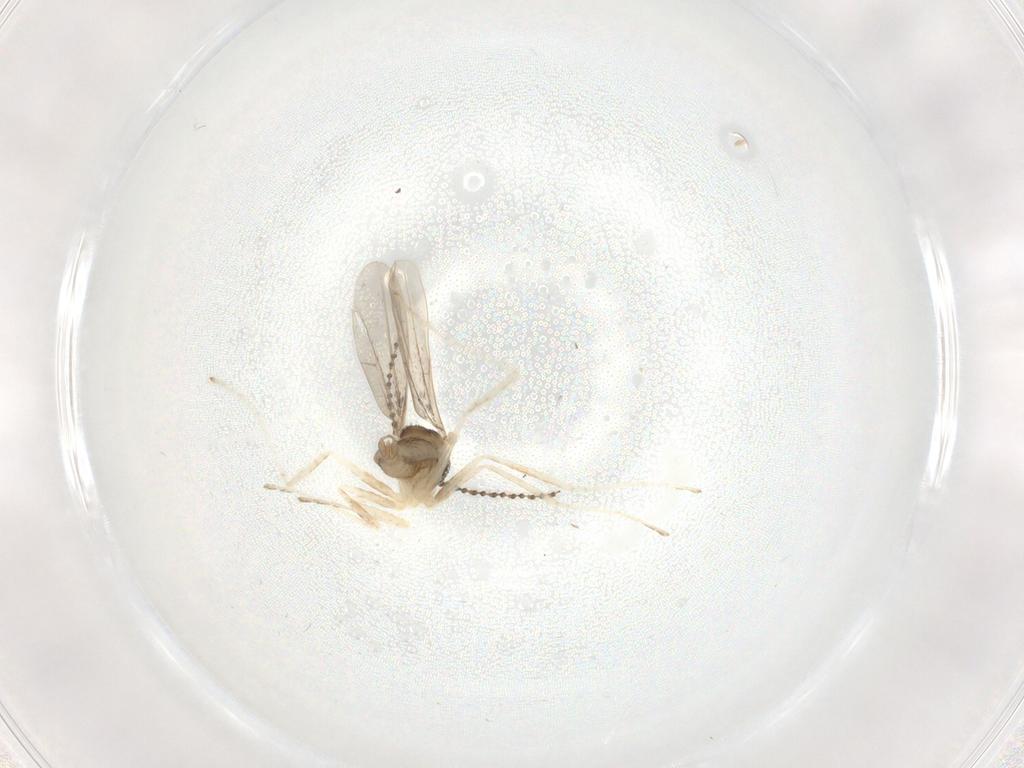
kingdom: Animalia
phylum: Arthropoda
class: Insecta
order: Diptera
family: Psychodidae
